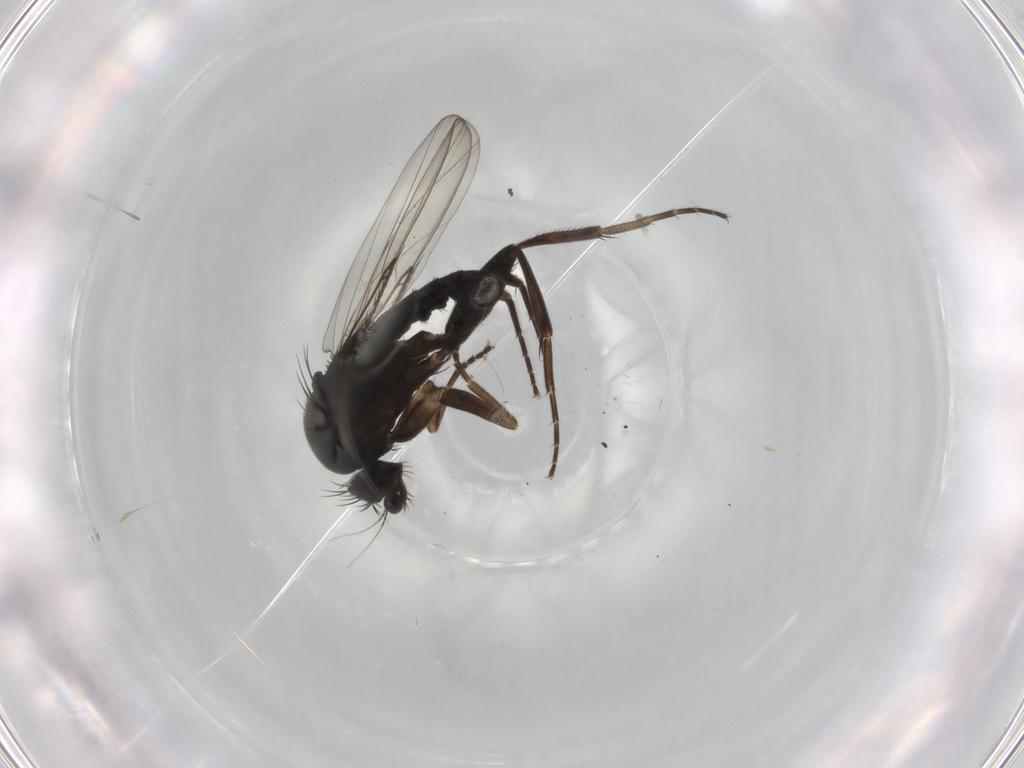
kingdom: Animalia
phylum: Arthropoda
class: Insecta
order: Diptera
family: Phoridae
